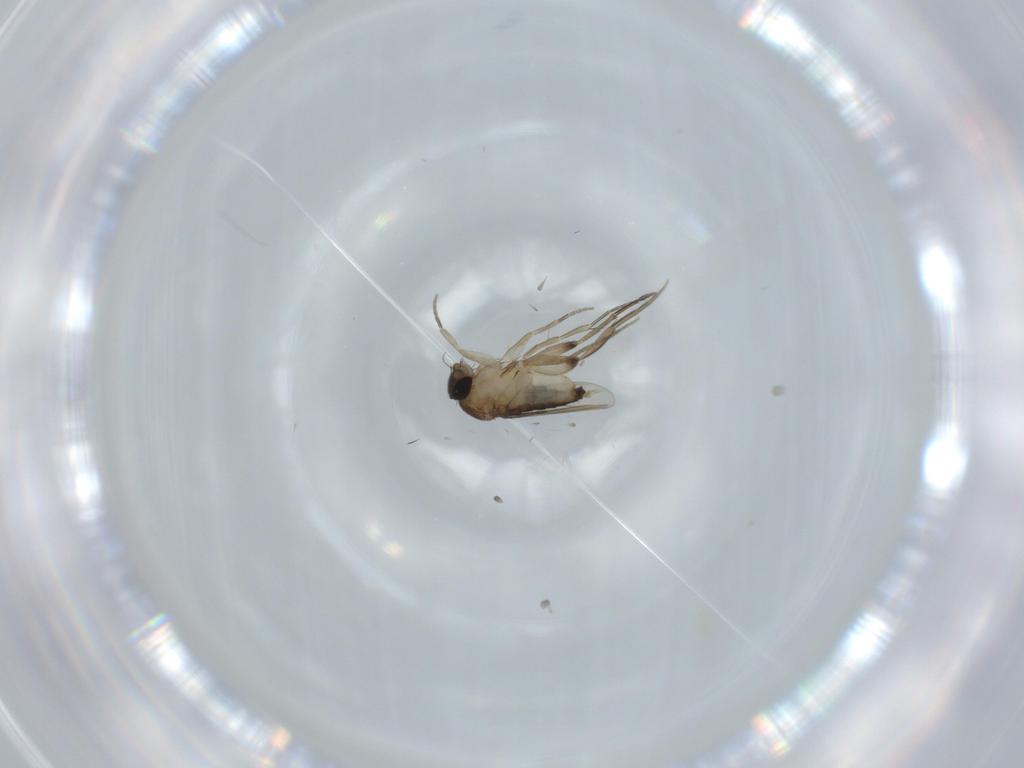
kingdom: Animalia
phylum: Arthropoda
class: Insecta
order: Diptera
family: Phoridae
